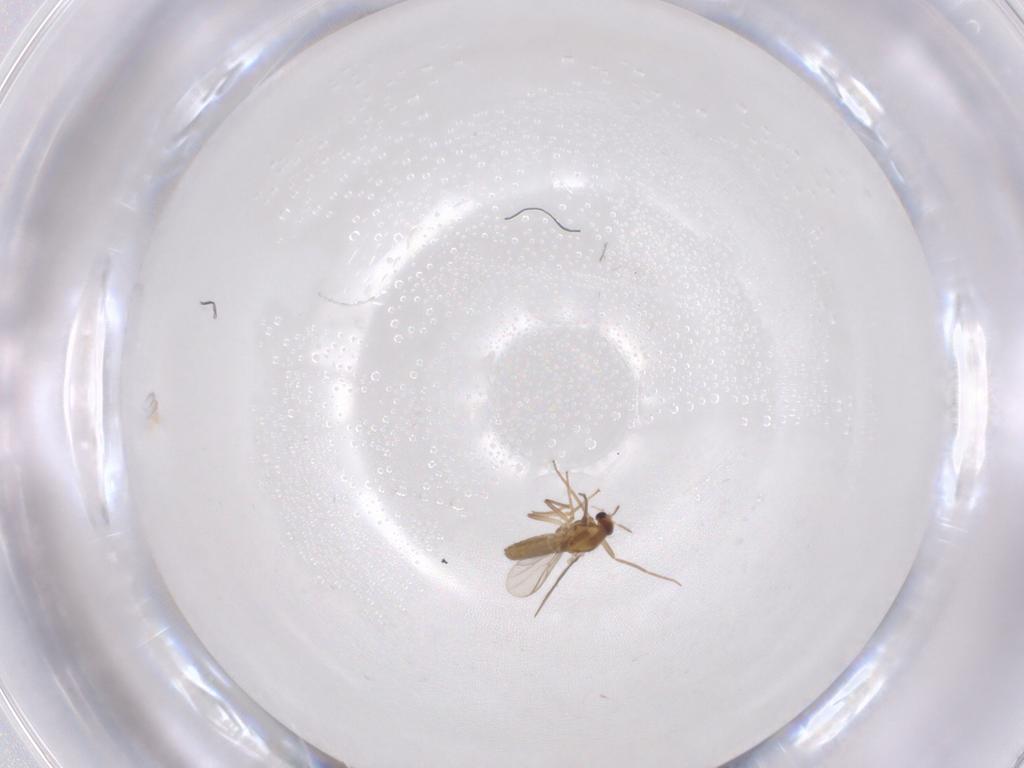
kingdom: Animalia
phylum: Arthropoda
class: Insecta
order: Diptera
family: Chironomidae
